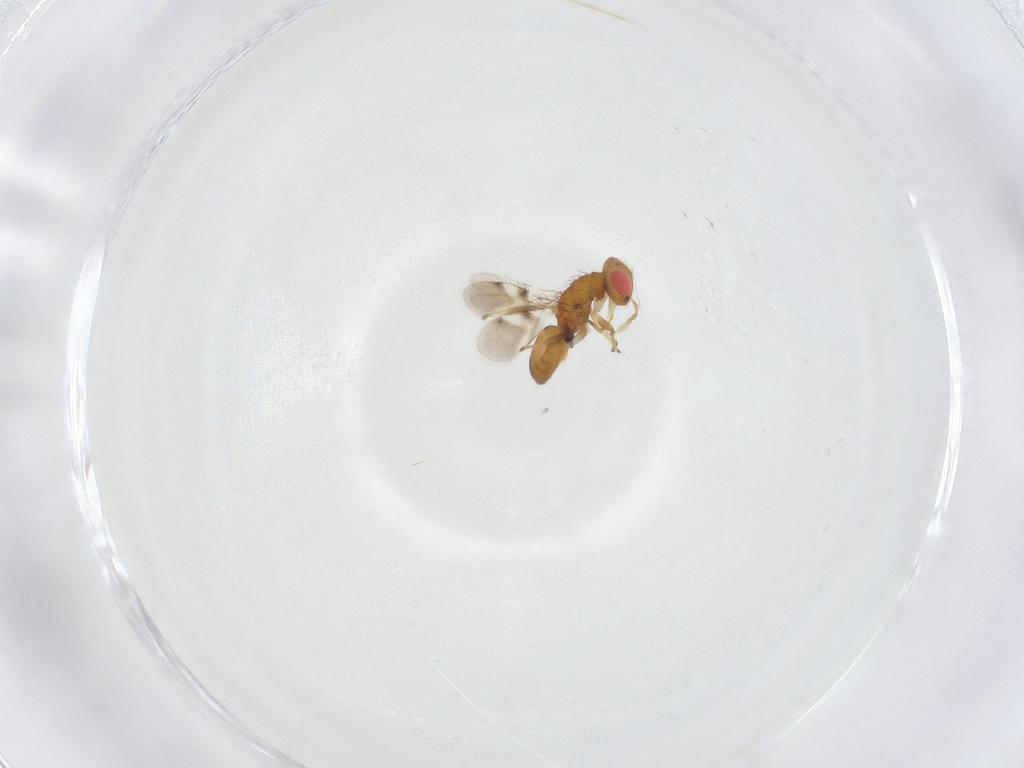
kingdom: Animalia
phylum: Arthropoda
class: Insecta
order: Hymenoptera
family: Eulophidae
